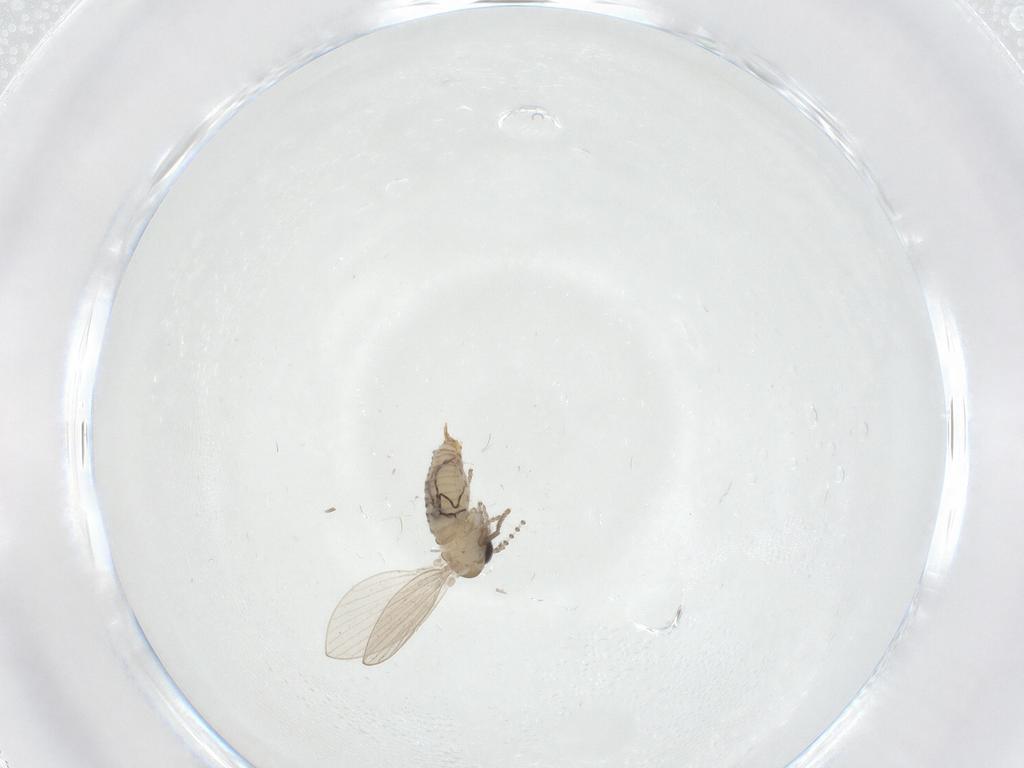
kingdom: Animalia
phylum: Arthropoda
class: Insecta
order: Diptera
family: Psychodidae
